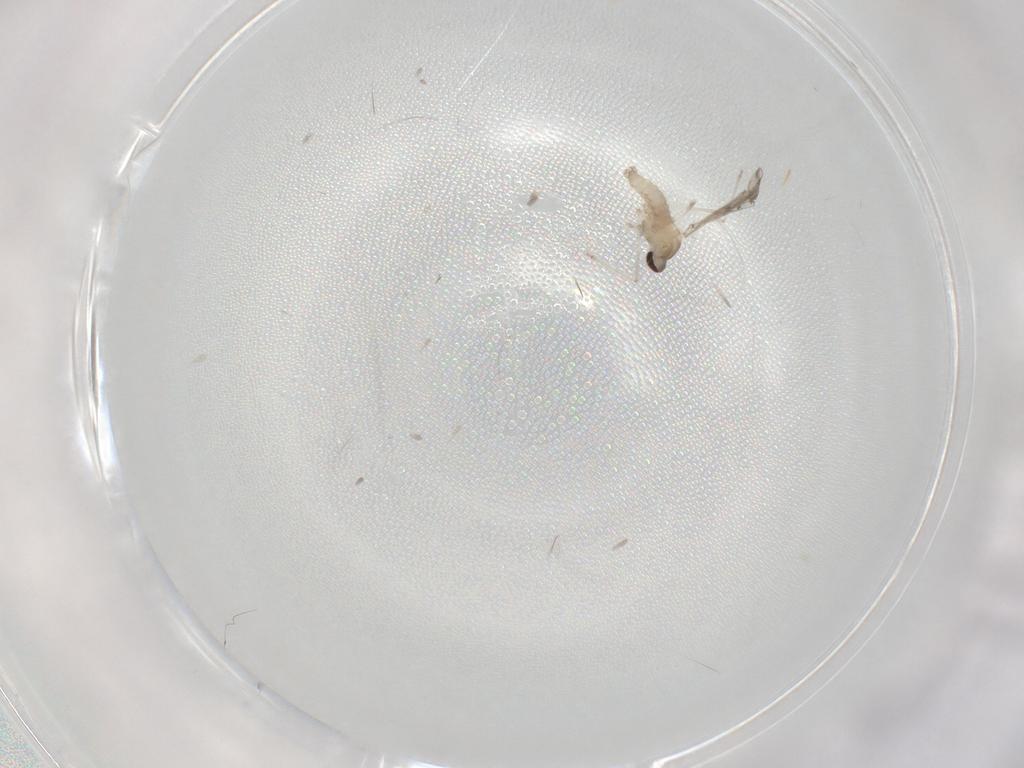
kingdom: Animalia
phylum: Arthropoda
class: Insecta
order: Diptera
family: Cecidomyiidae
